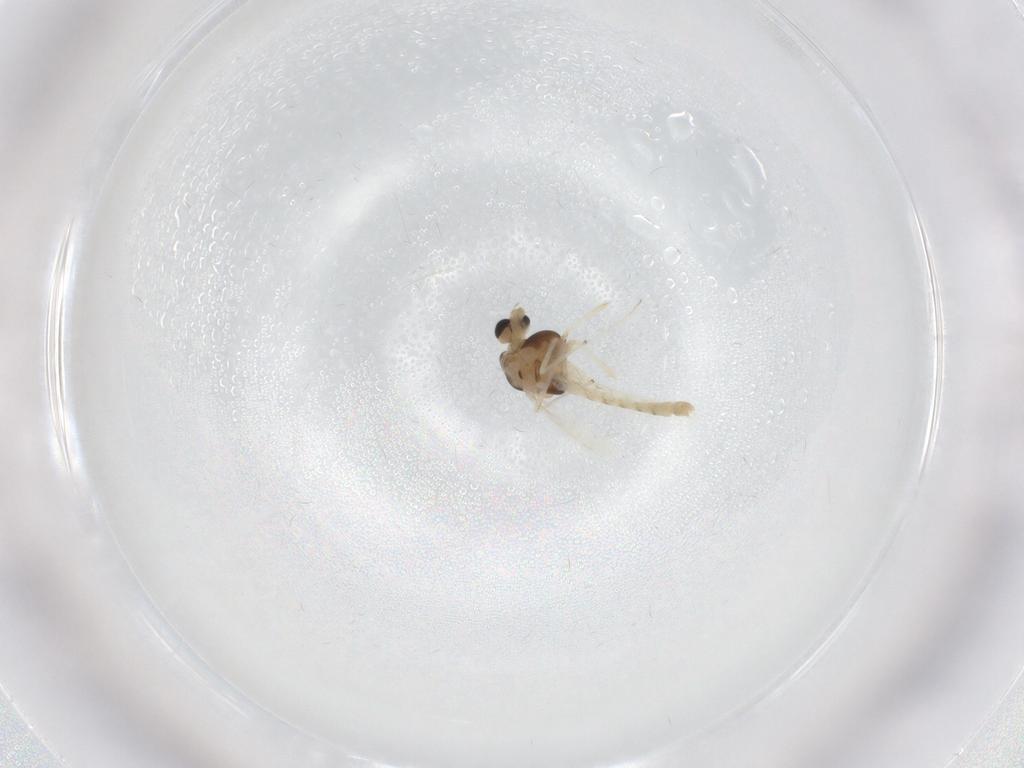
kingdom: Animalia
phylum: Arthropoda
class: Insecta
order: Diptera
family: Chironomidae
